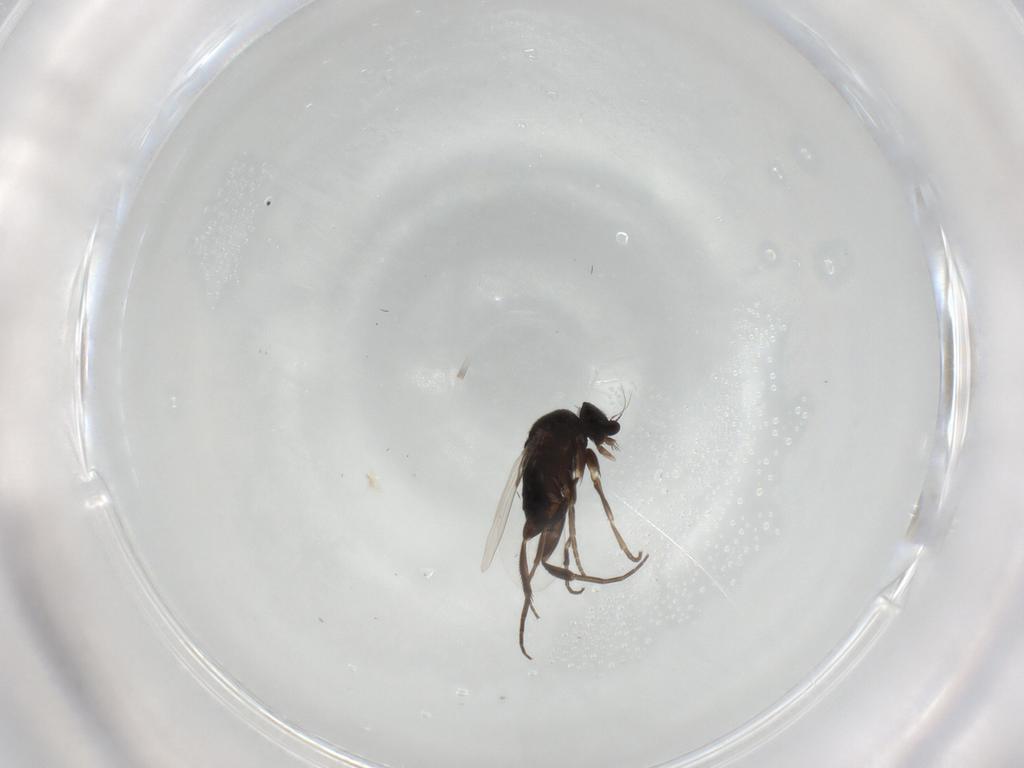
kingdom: Animalia
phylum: Arthropoda
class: Insecta
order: Diptera
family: Phoridae
